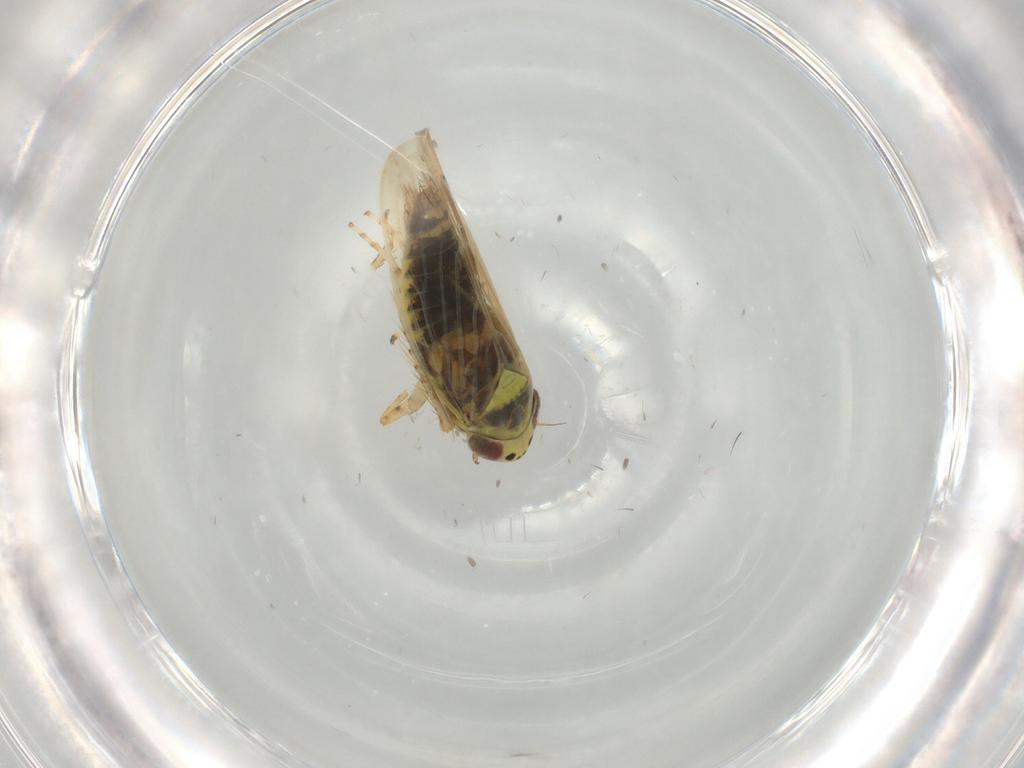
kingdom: Animalia
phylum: Arthropoda
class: Insecta
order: Hemiptera
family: Cicadellidae
